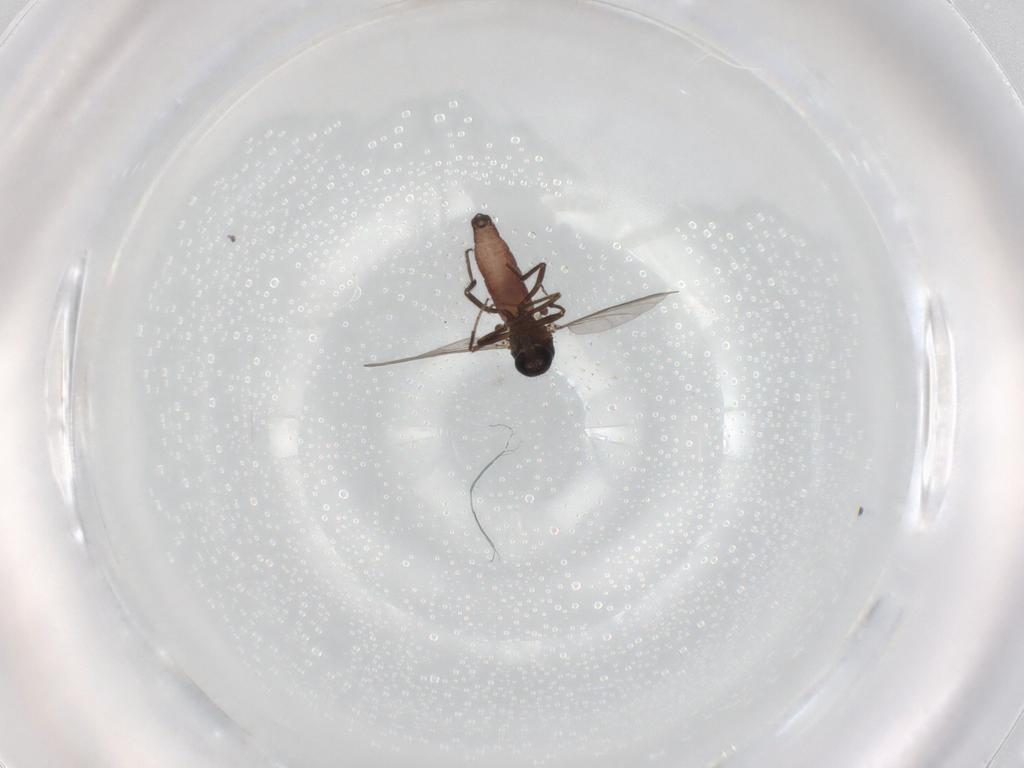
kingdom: Animalia
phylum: Arthropoda
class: Insecta
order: Diptera
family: Ceratopogonidae
